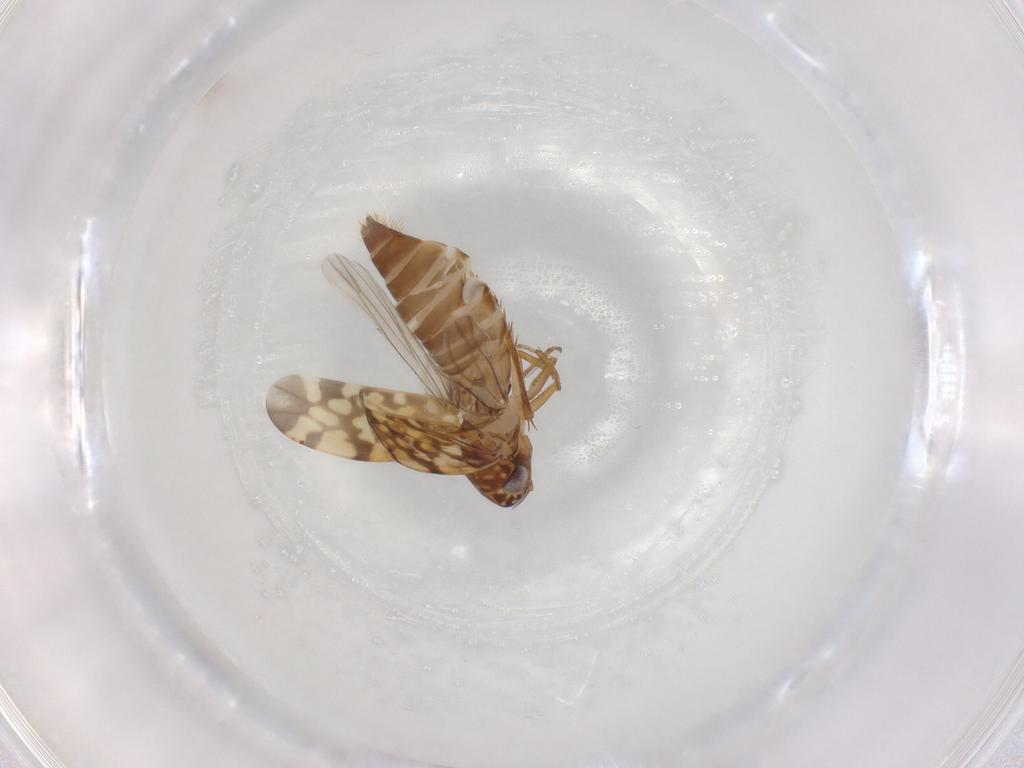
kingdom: Animalia
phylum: Arthropoda
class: Insecta
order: Hemiptera
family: Cicadellidae
